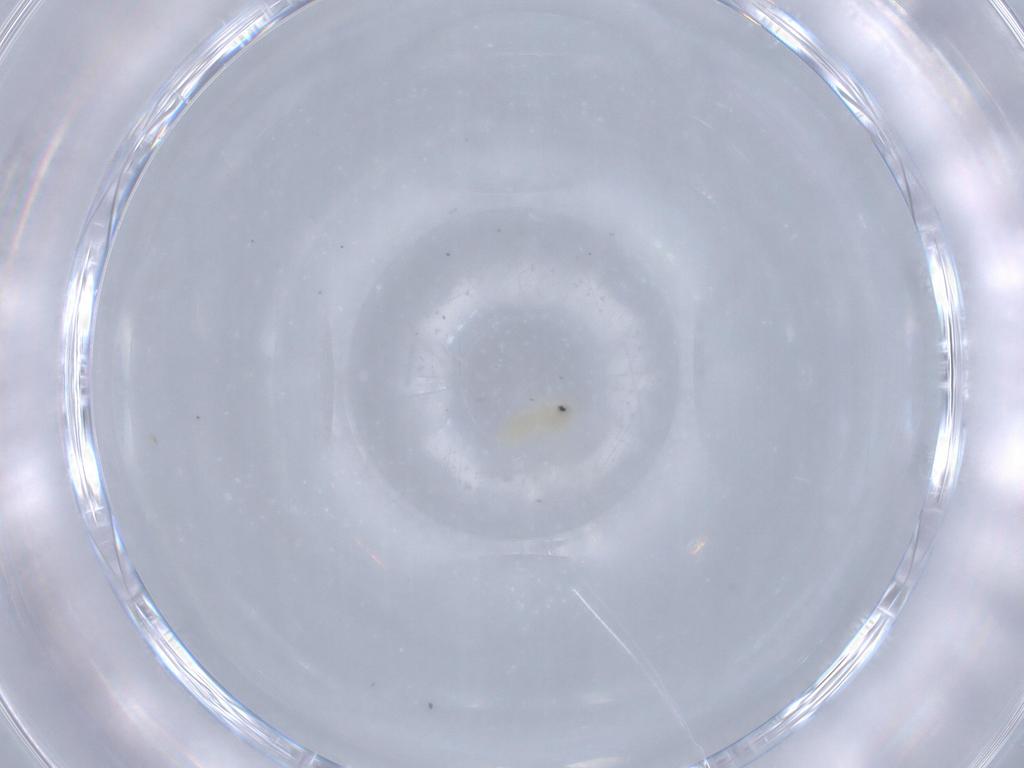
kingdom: Animalia
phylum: Arthropoda
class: Insecta
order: Hemiptera
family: Aleyrodidae
